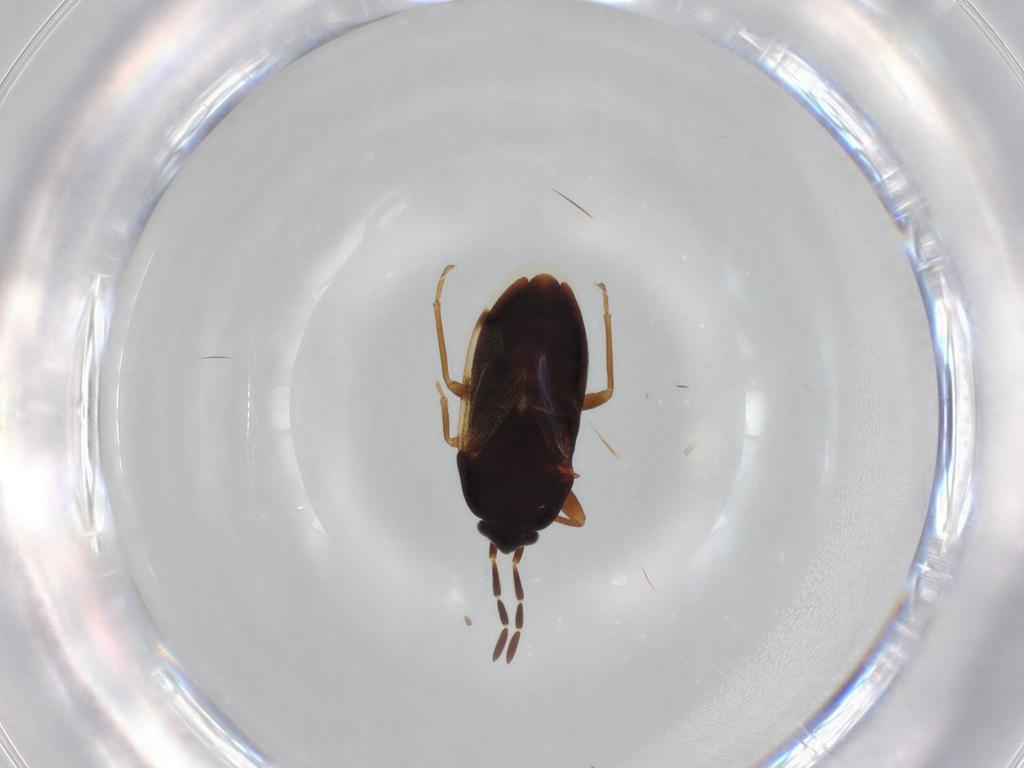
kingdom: Animalia
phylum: Arthropoda
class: Insecta
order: Hemiptera
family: Rhyparochromidae
